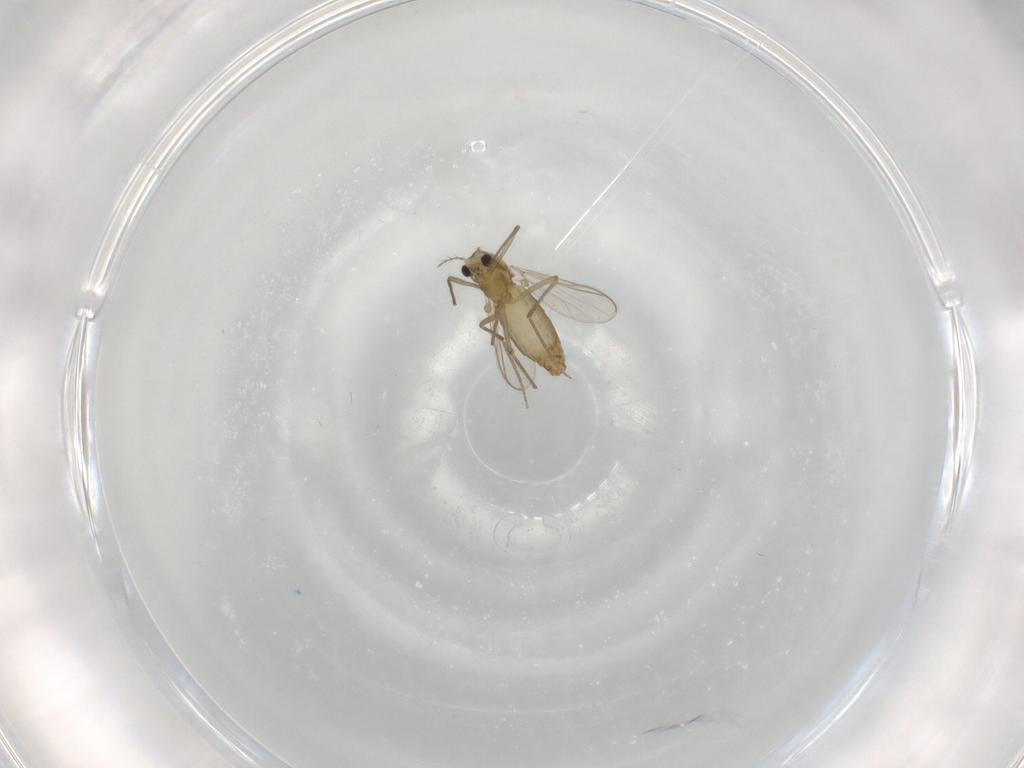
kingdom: Animalia
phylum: Arthropoda
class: Insecta
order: Diptera
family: Chironomidae
